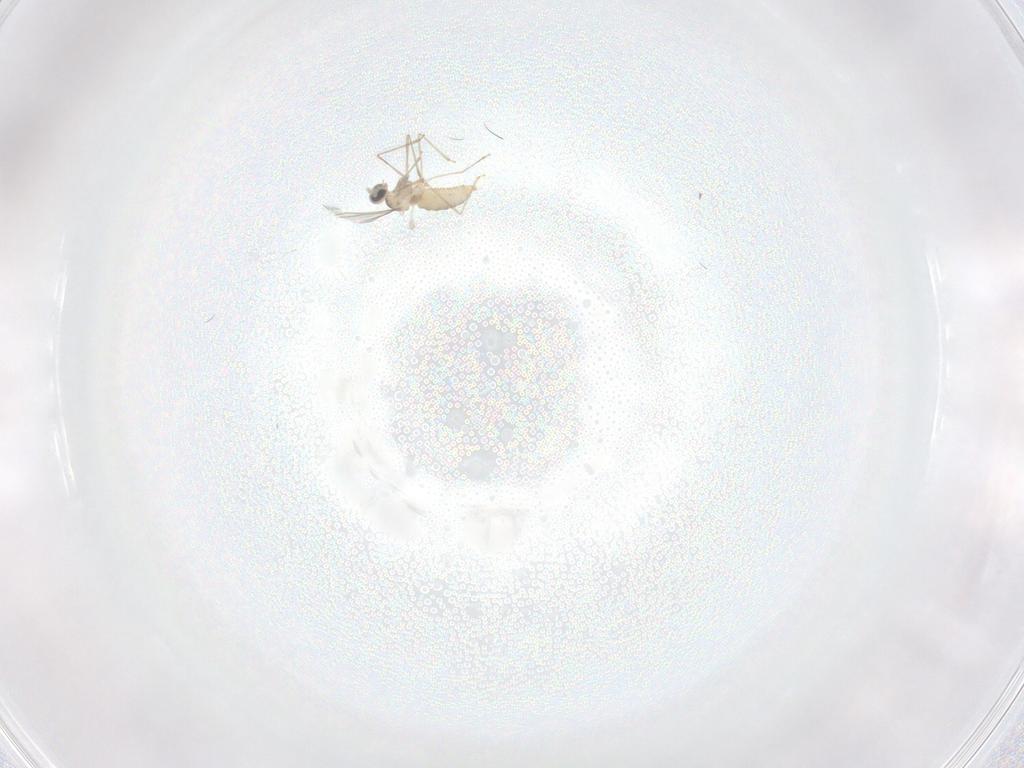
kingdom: Animalia
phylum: Arthropoda
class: Insecta
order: Diptera
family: Cecidomyiidae
